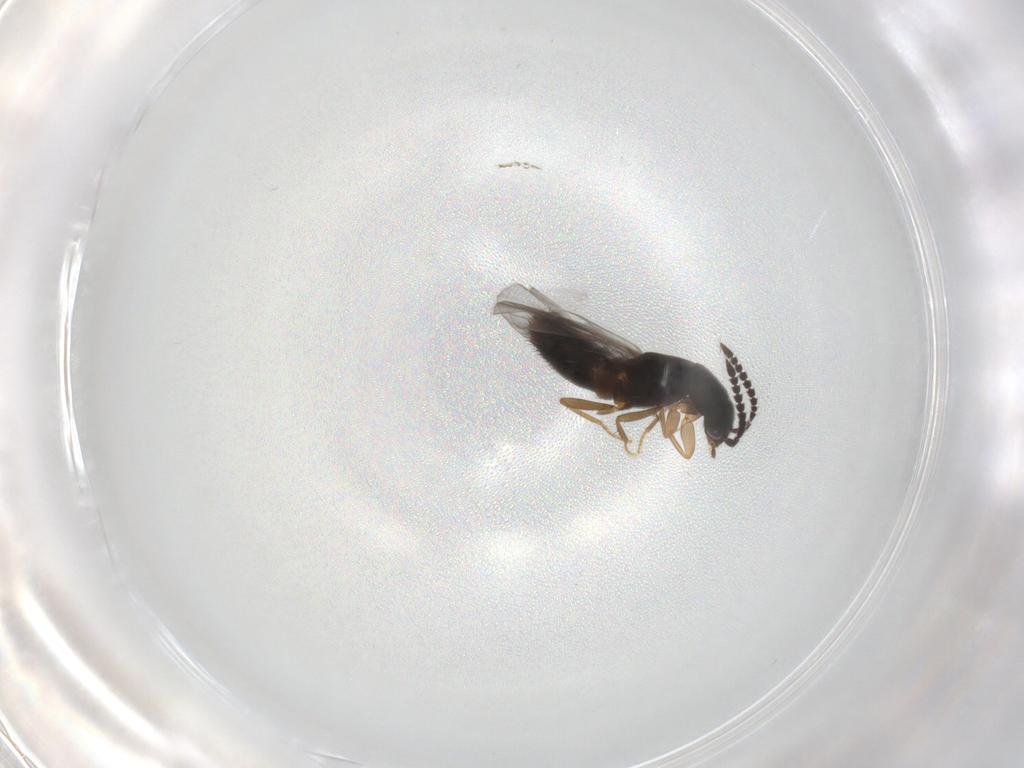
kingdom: Animalia
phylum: Arthropoda
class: Insecta
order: Coleoptera
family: Staphylinidae
